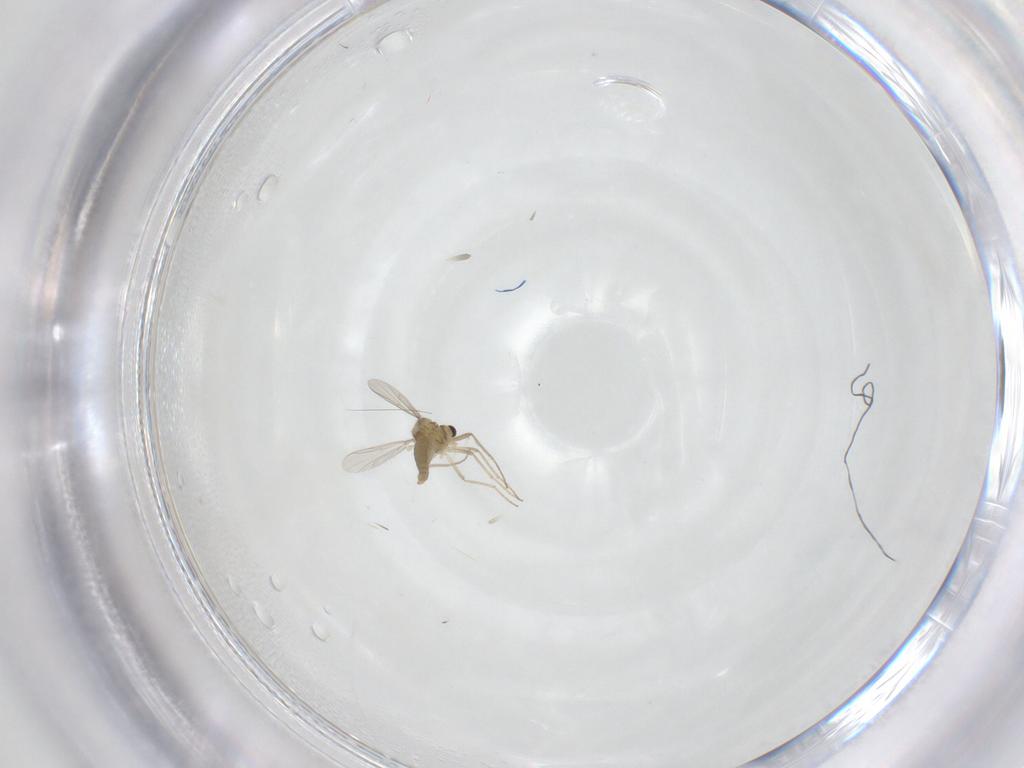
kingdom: Animalia
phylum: Arthropoda
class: Insecta
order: Diptera
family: Chironomidae
